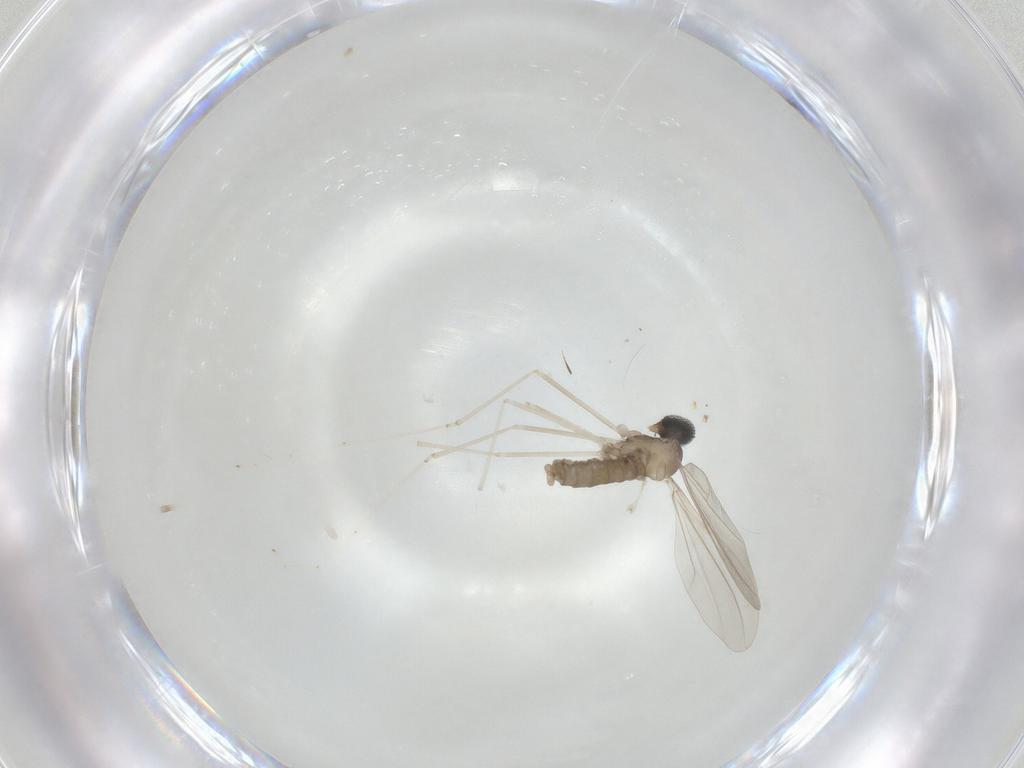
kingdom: Animalia
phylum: Arthropoda
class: Insecta
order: Diptera
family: Cecidomyiidae
